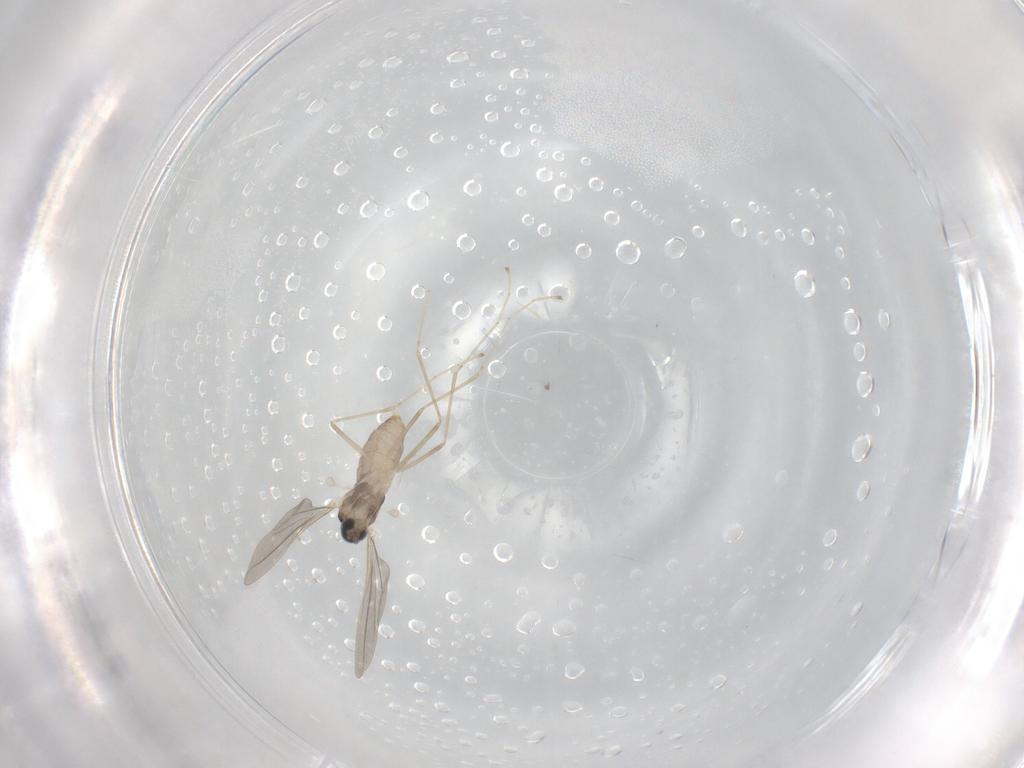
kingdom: Animalia
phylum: Arthropoda
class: Insecta
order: Diptera
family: Cecidomyiidae
